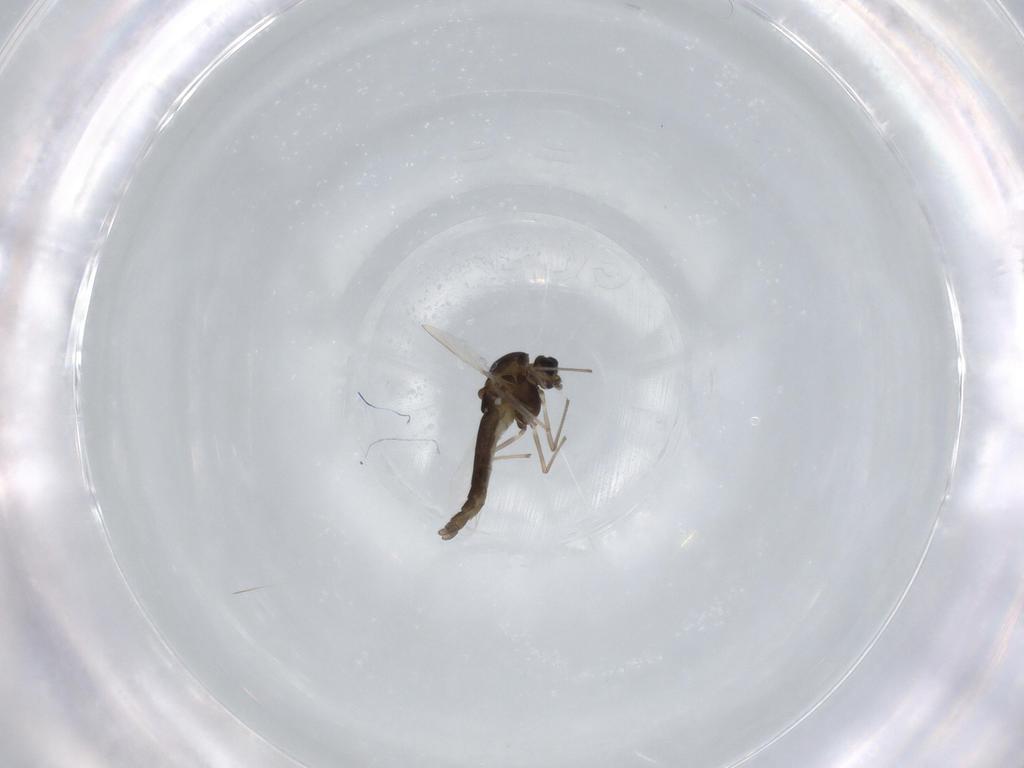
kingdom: Animalia
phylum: Arthropoda
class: Insecta
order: Diptera
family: Chironomidae
